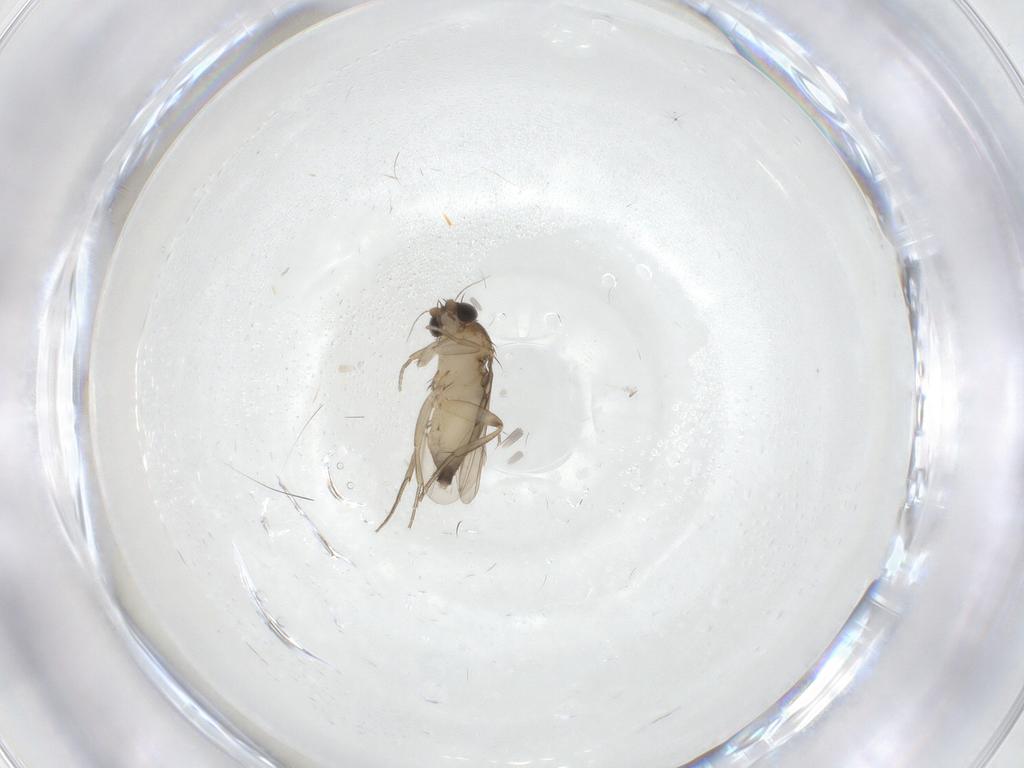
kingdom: Animalia
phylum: Arthropoda
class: Insecta
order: Diptera
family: Phoridae
